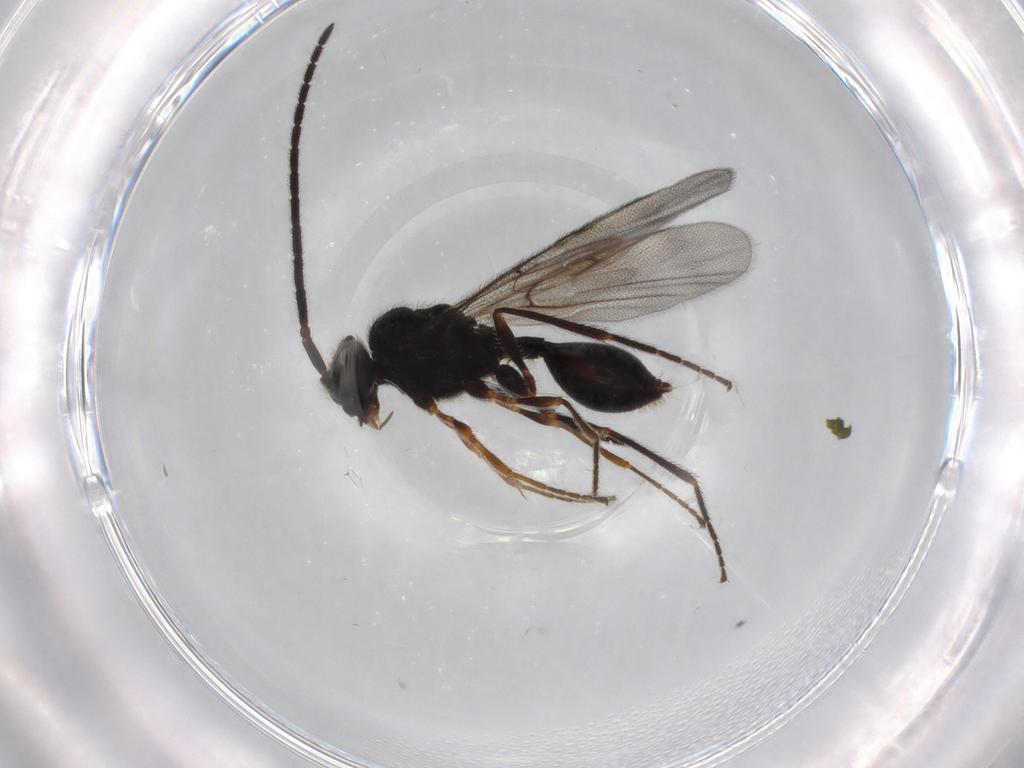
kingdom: Animalia
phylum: Arthropoda
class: Insecta
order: Hymenoptera
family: Diapriidae
